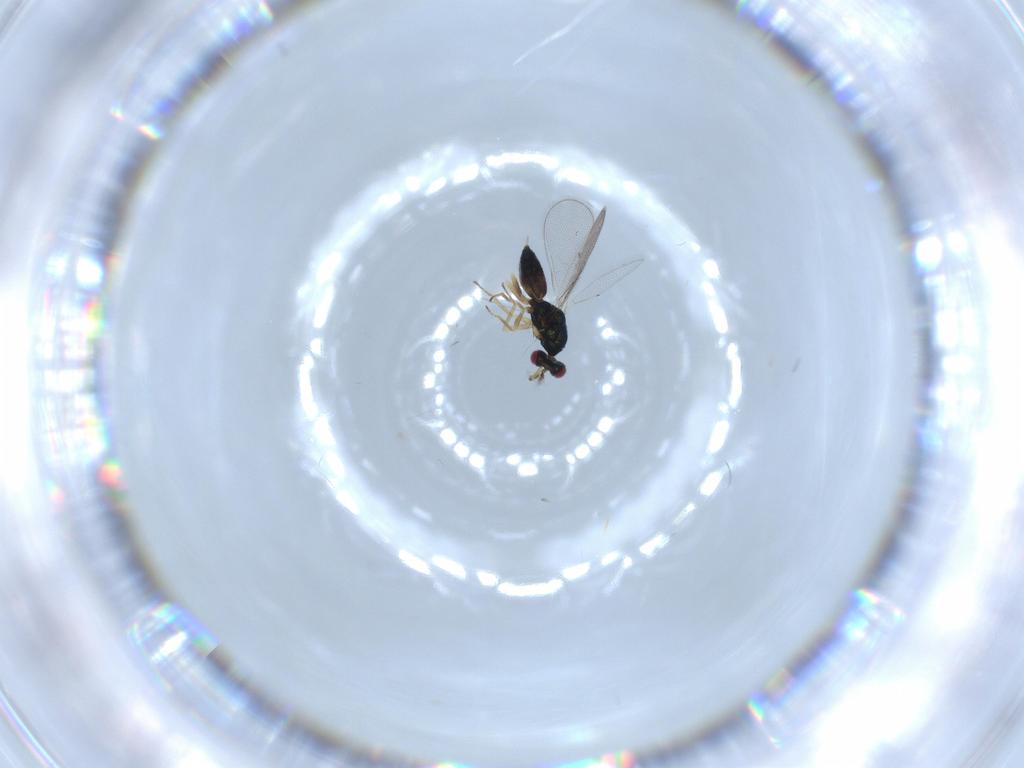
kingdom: Animalia
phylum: Arthropoda
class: Insecta
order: Hymenoptera
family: Eulophidae
